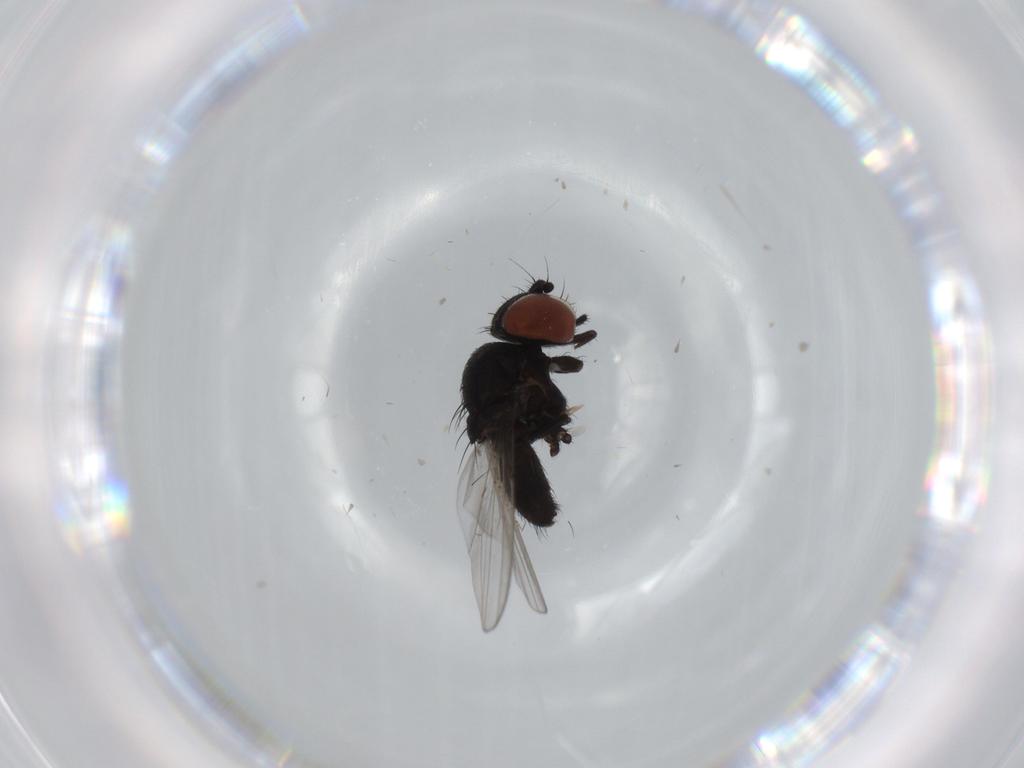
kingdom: Animalia
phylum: Arthropoda
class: Insecta
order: Diptera
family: Milichiidae
